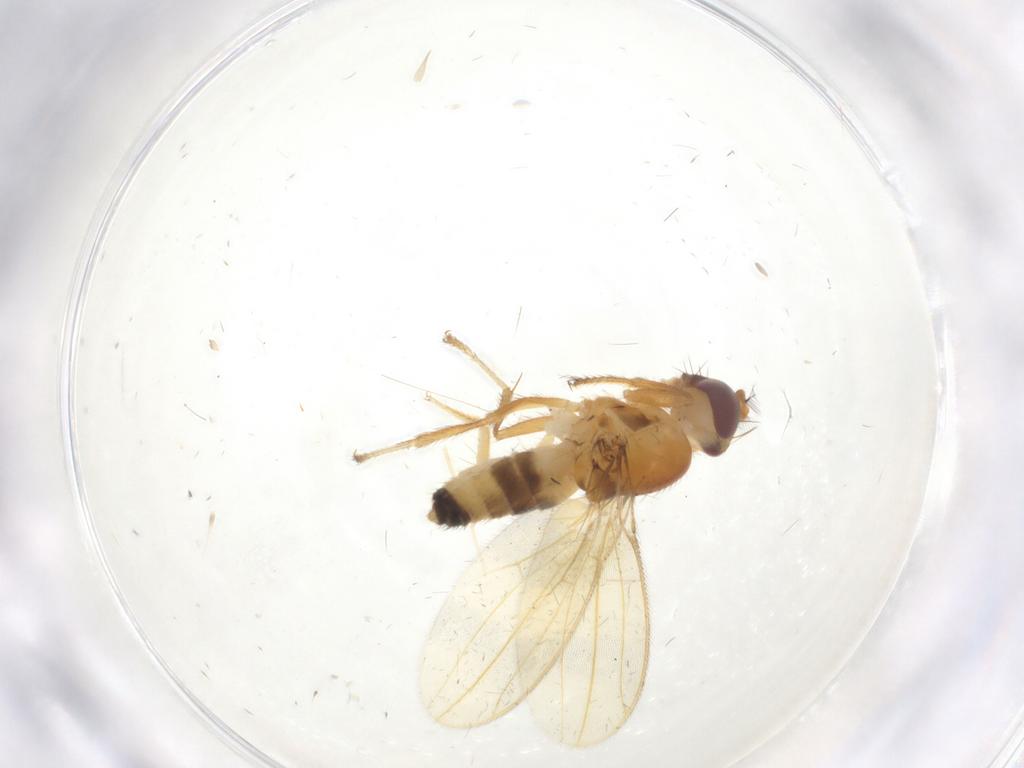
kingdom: Animalia
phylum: Arthropoda
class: Insecta
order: Diptera
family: Periscelididae
